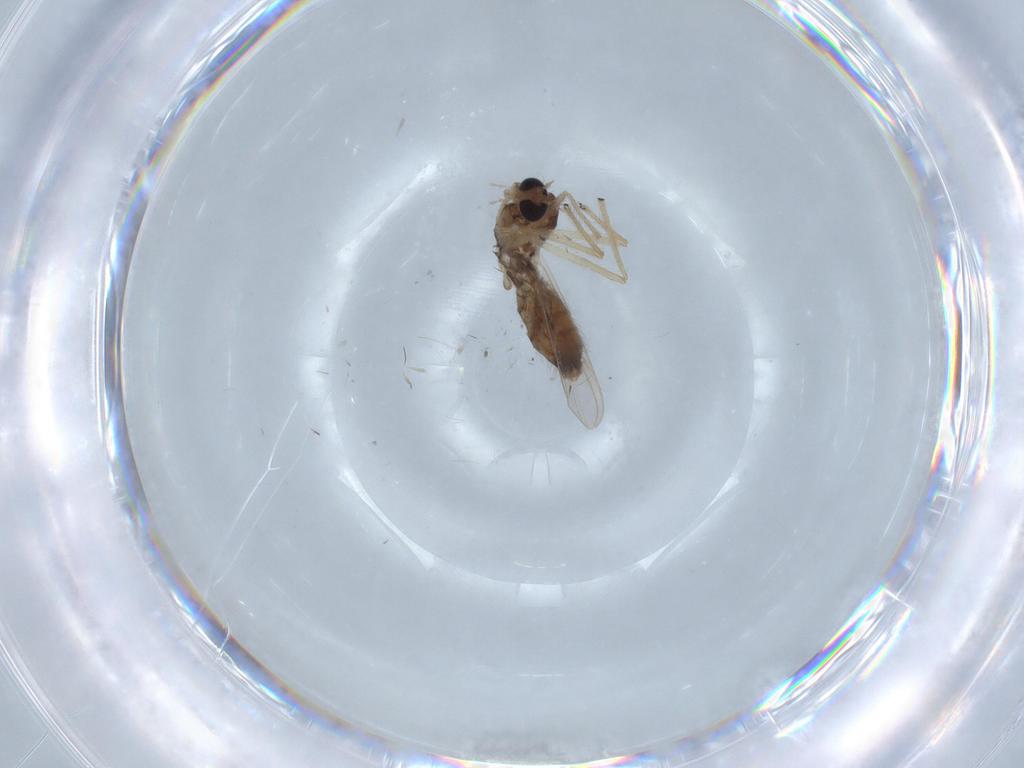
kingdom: Animalia
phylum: Arthropoda
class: Insecta
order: Diptera
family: Chironomidae
